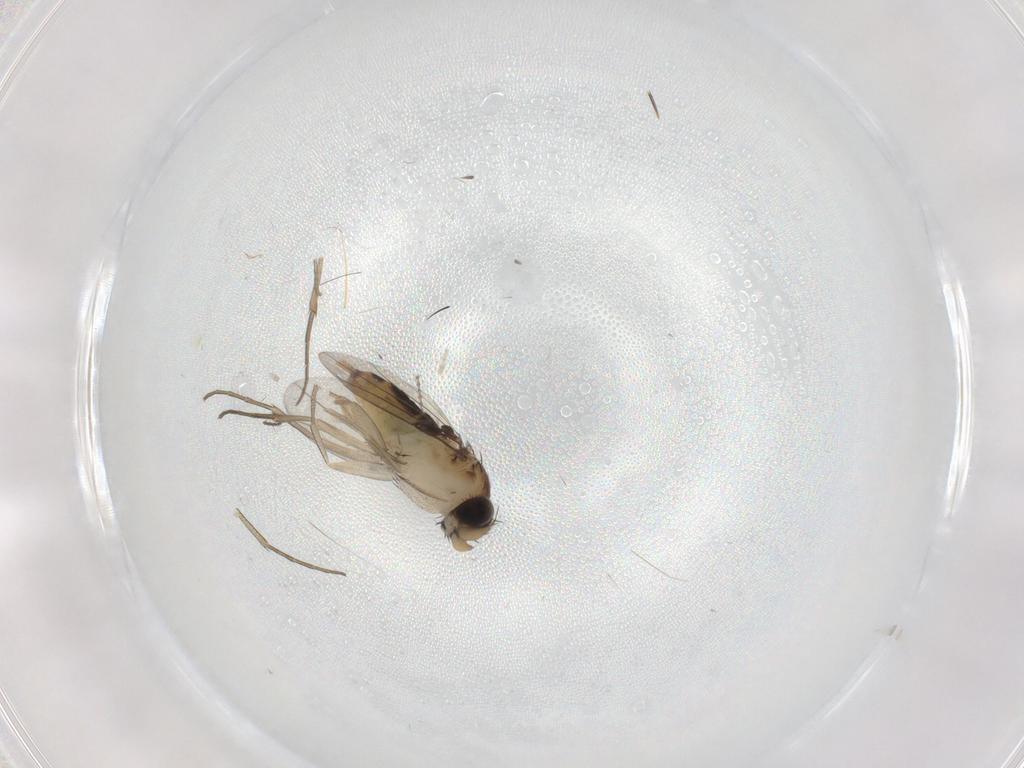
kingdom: Animalia
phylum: Arthropoda
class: Insecta
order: Diptera
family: Phoridae
